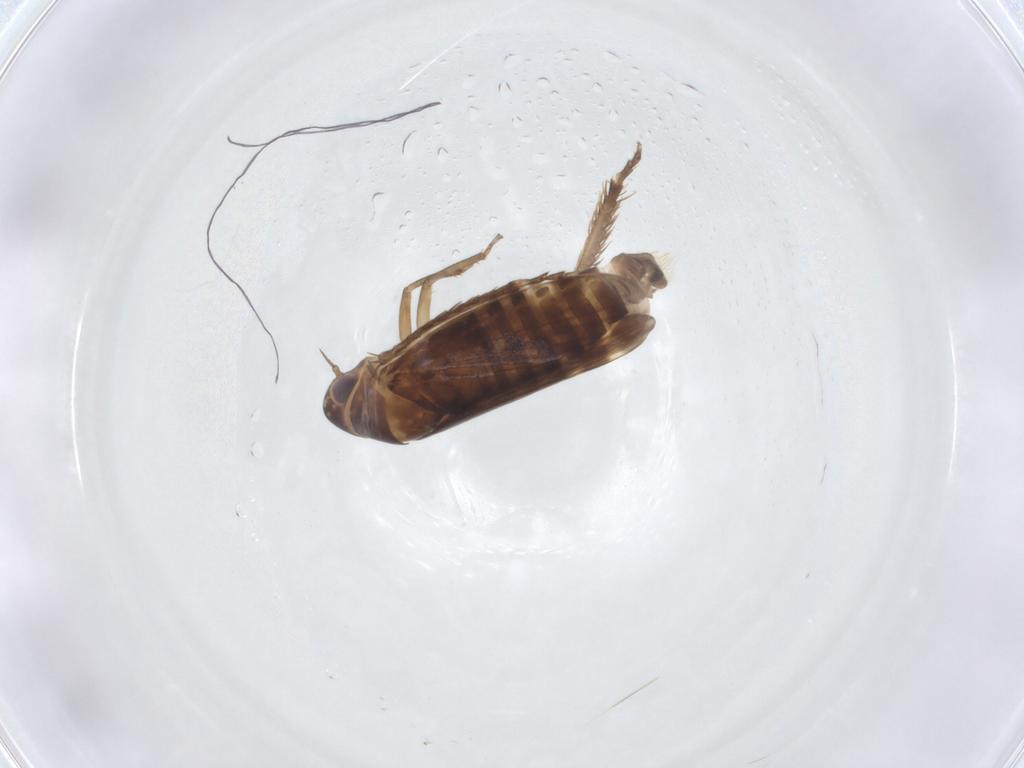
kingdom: Animalia
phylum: Arthropoda
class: Insecta
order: Hemiptera
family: Cicadellidae
